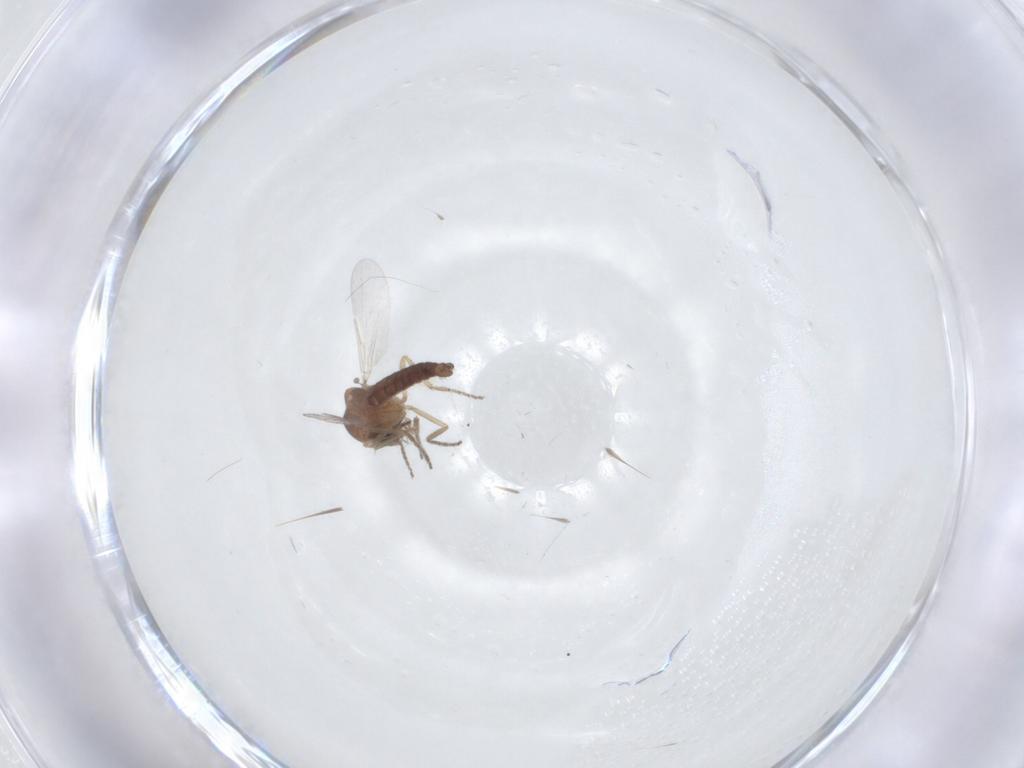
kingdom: Animalia
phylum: Arthropoda
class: Insecta
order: Diptera
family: Ceratopogonidae
